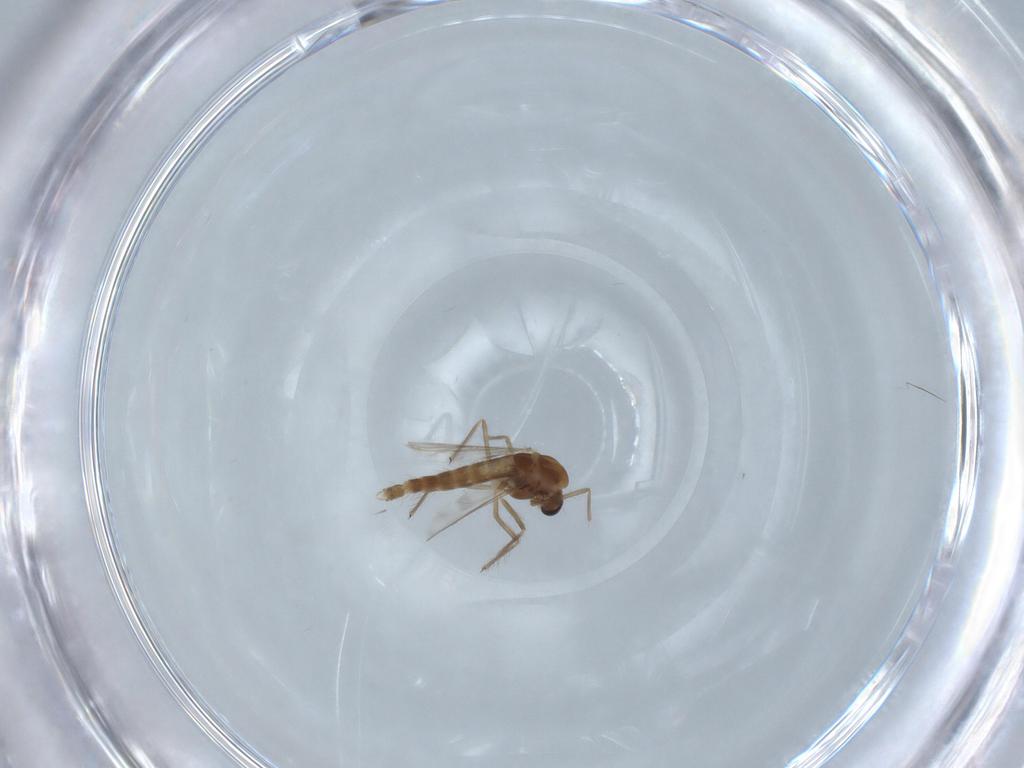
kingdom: Animalia
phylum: Arthropoda
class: Insecta
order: Diptera
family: Chironomidae
